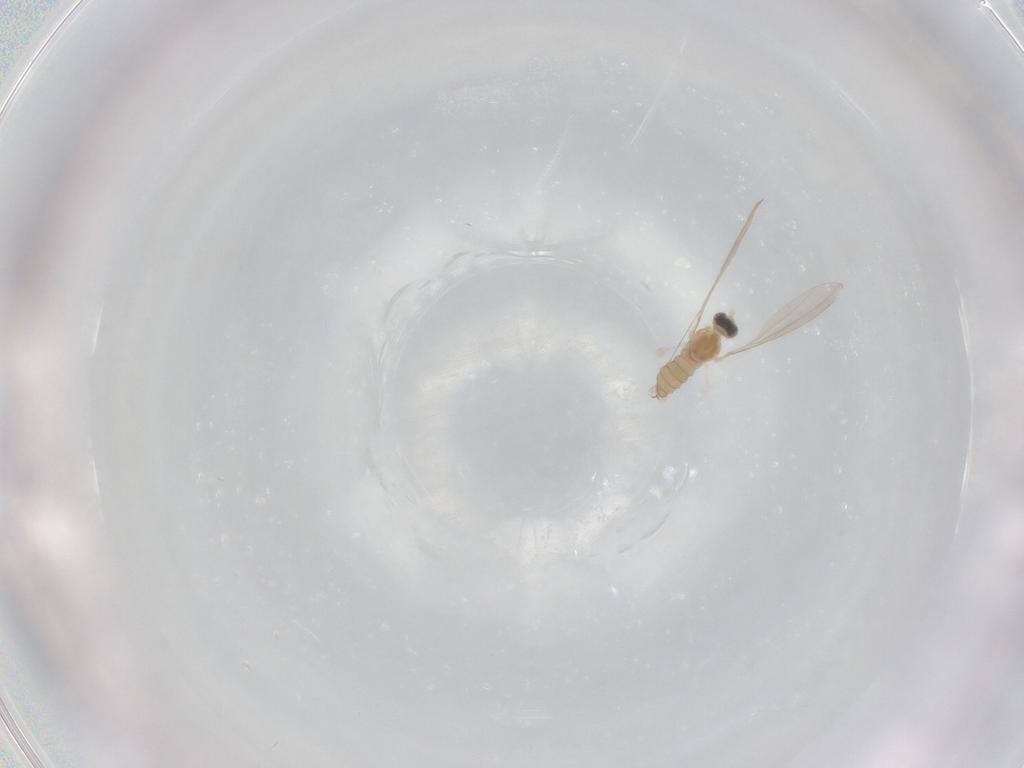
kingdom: Animalia
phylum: Arthropoda
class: Insecta
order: Diptera
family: Cecidomyiidae
